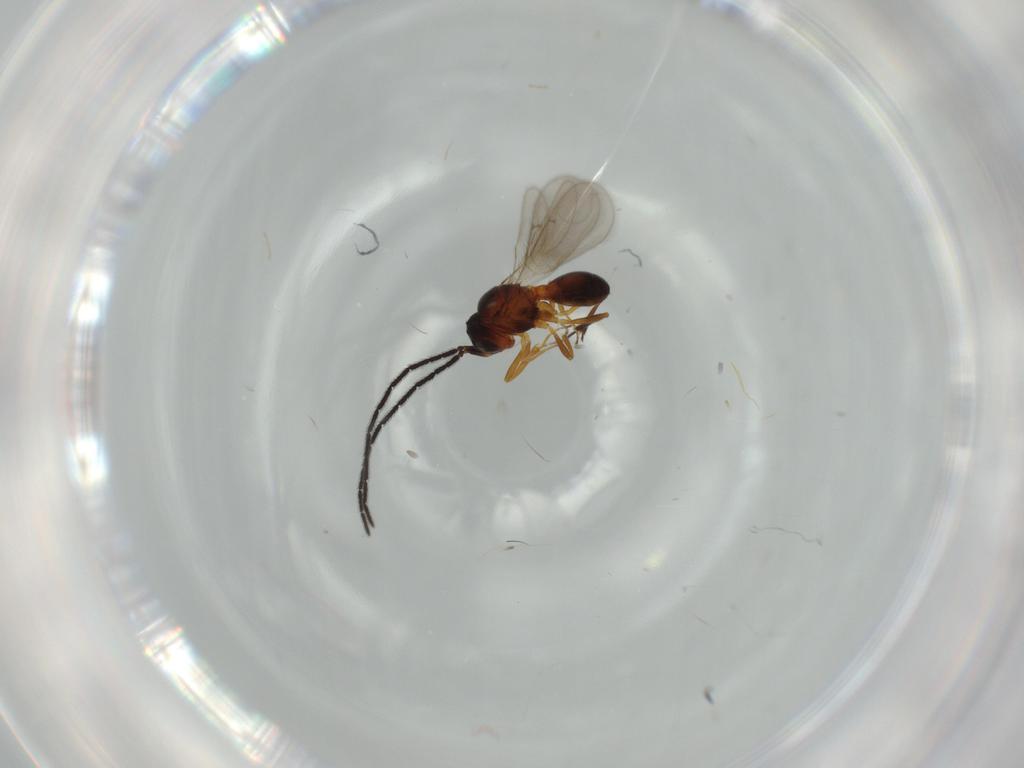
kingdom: Animalia
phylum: Arthropoda
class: Insecta
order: Hymenoptera
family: Scelionidae
